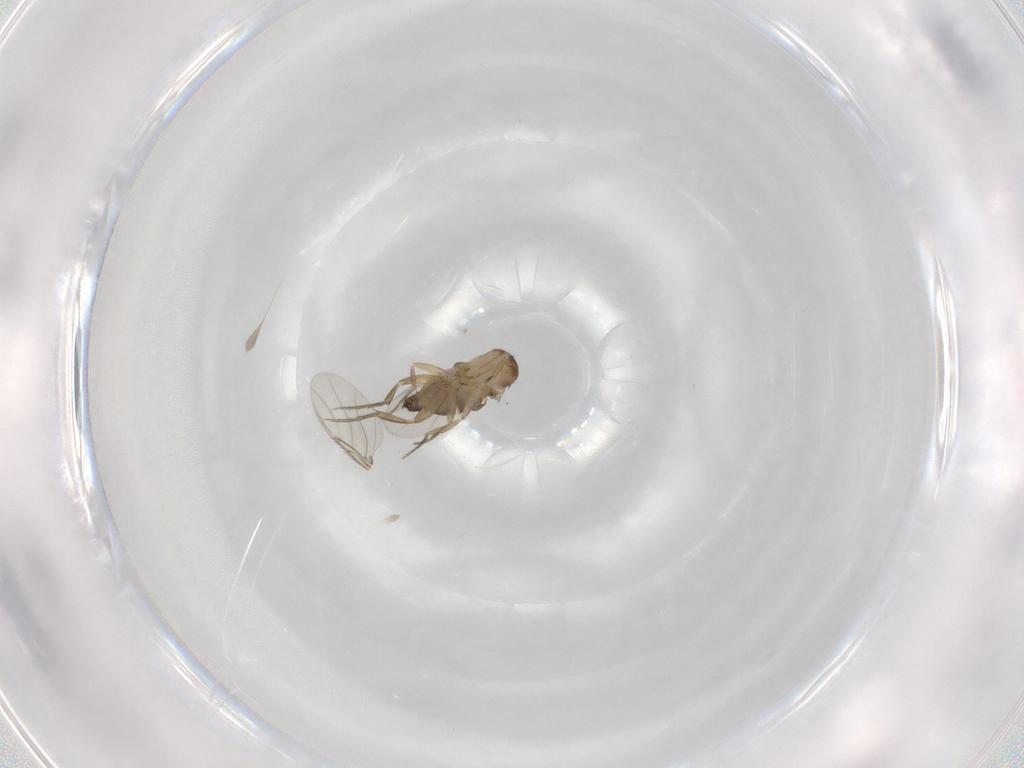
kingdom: Animalia
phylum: Arthropoda
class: Insecta
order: Diptera
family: Phoridae
